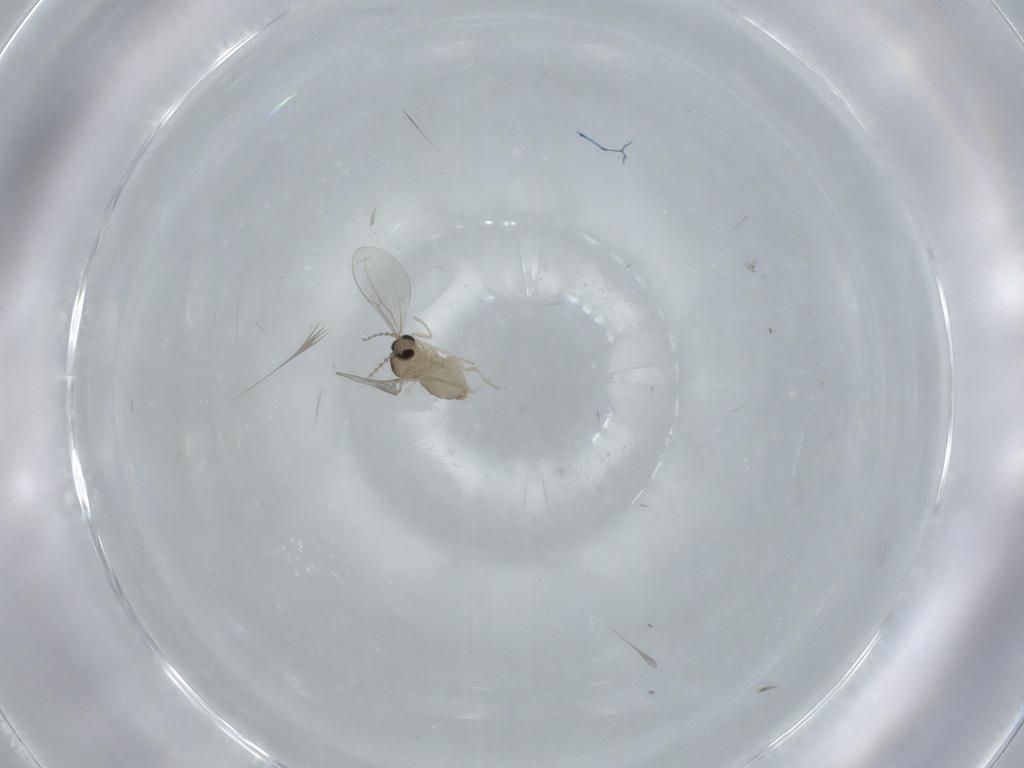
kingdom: Animalia
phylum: Arthropoda
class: Insecta
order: Diptera
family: Cecidomyiidae
